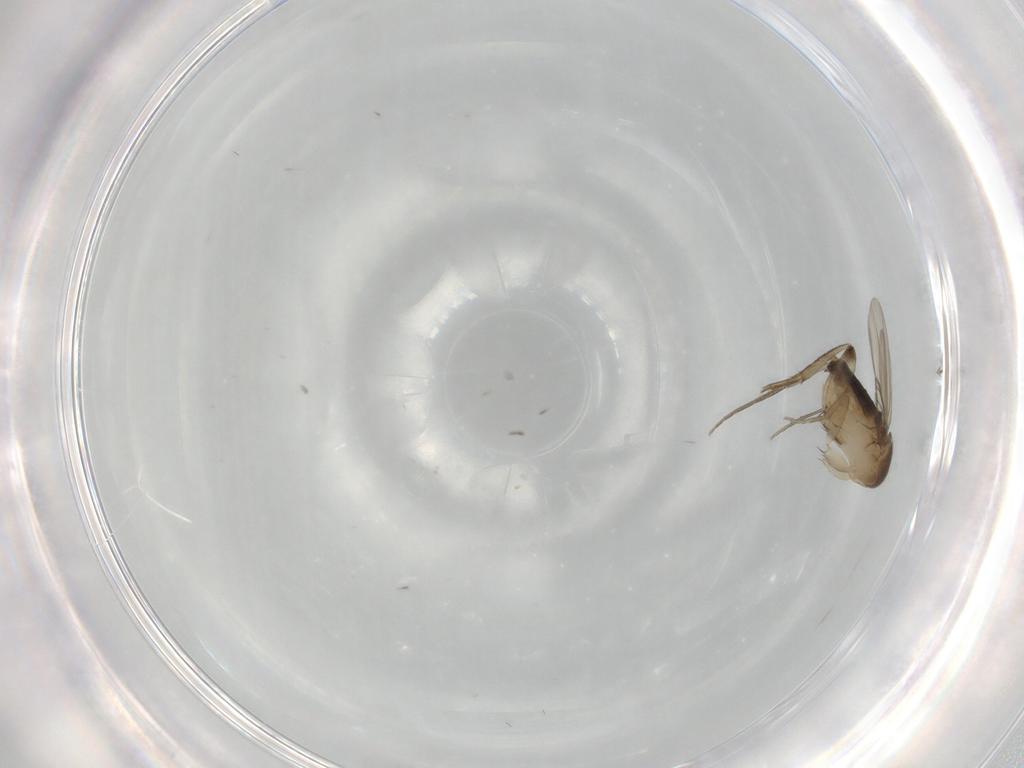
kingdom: Animalia
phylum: Arthropoda
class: Insecta
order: Diptera
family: Phoridae
